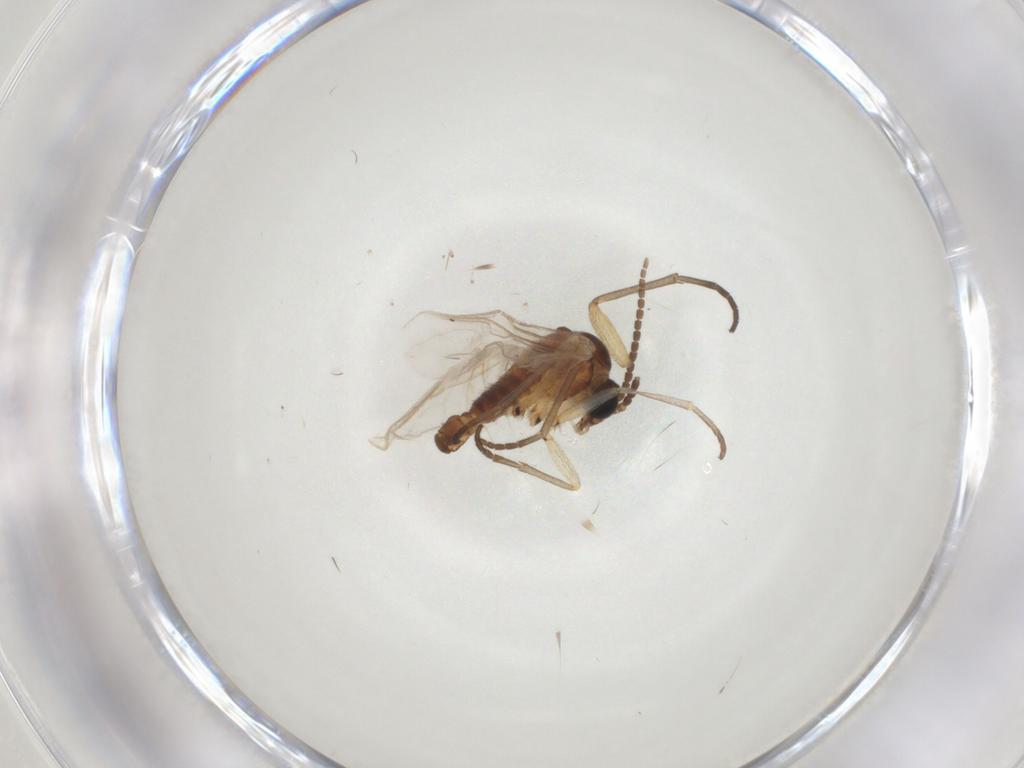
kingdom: Animalia
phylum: Arthropoda
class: Insecta
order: Diptera
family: Sciaridae
